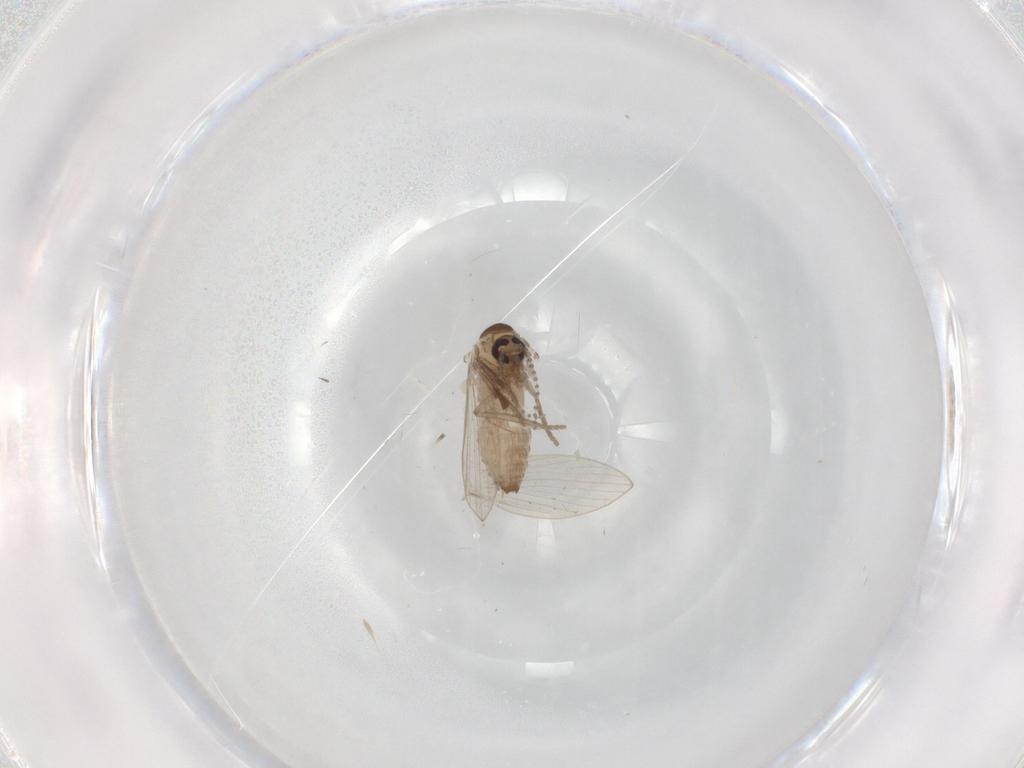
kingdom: Animalia
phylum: Arthropoda
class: Insecta
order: Diptera
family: Psychodidae
